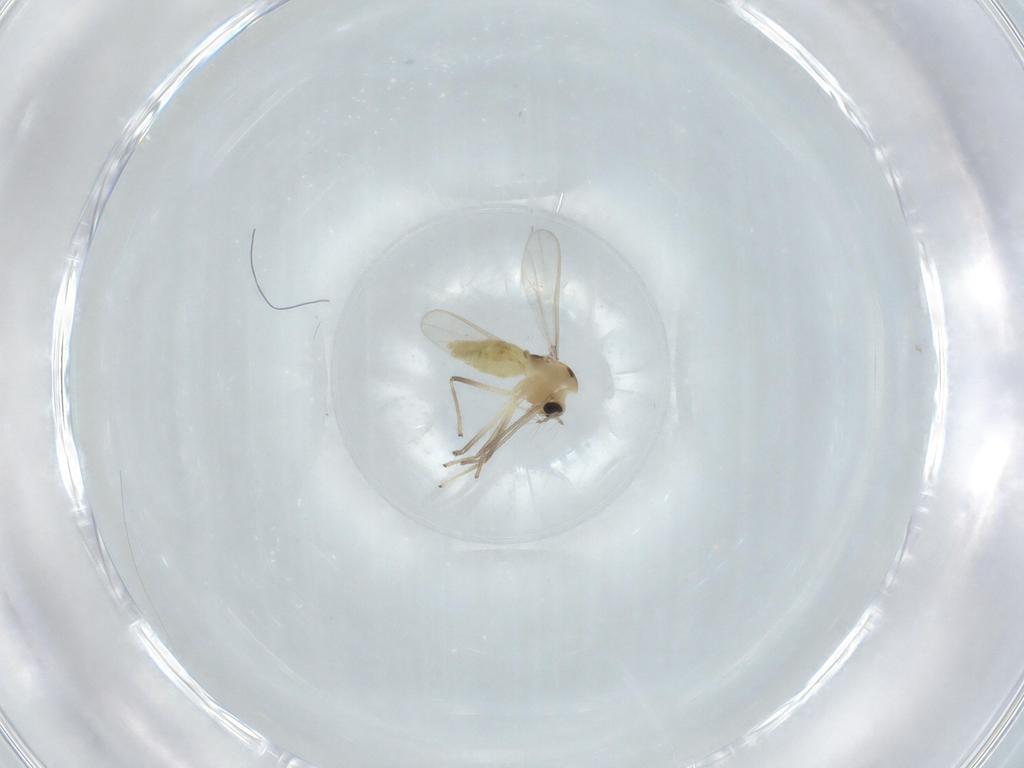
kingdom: Animalia
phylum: Arthropoda
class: Insecta
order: Diptera
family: Chironomidae
